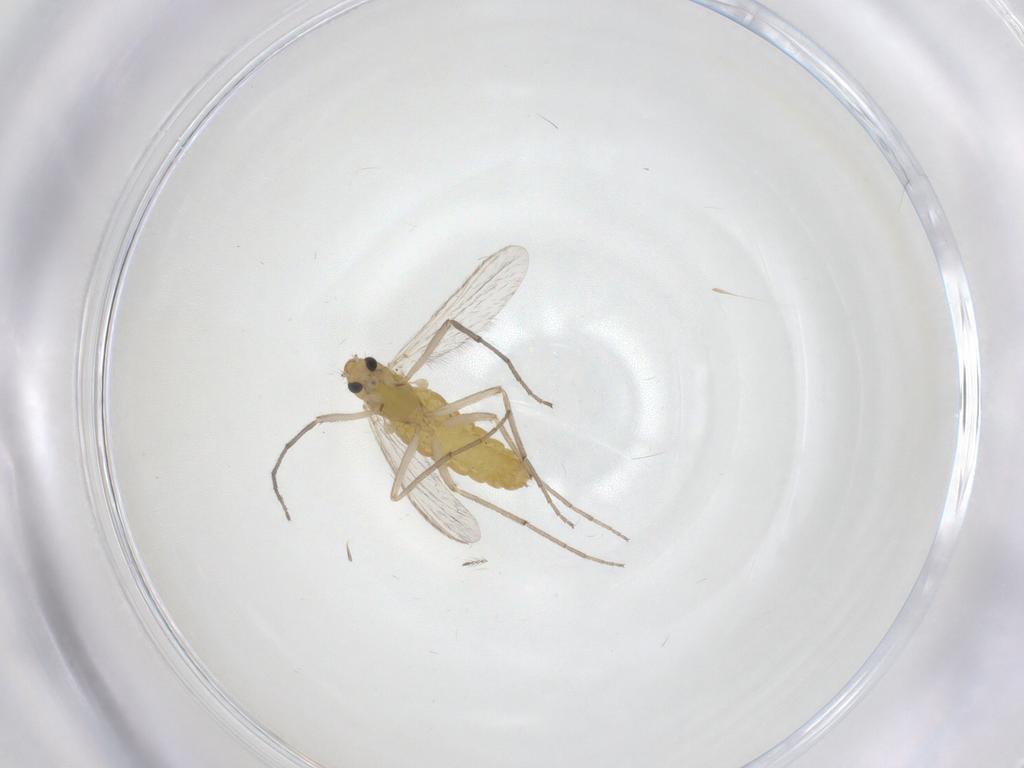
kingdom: Animalia
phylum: Arthropoda
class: Insecta
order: Diptera
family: Chironomidae
